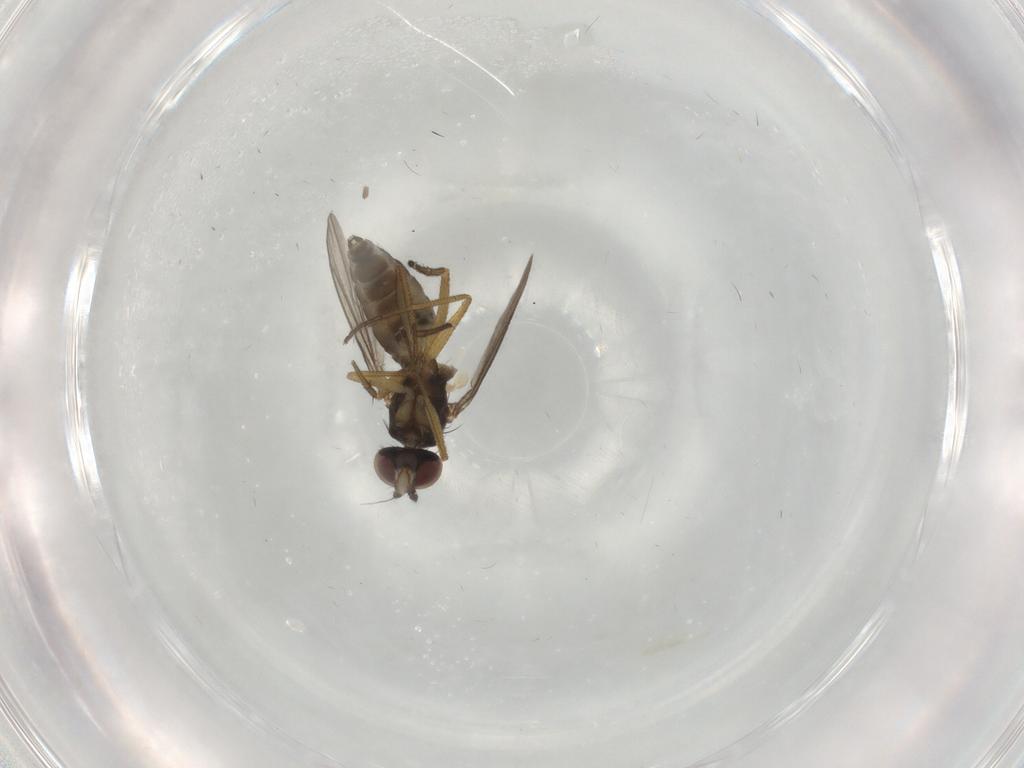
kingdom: Animalia
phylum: Arthropoda
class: Insecta
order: Diptera
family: Dolichopodidae
